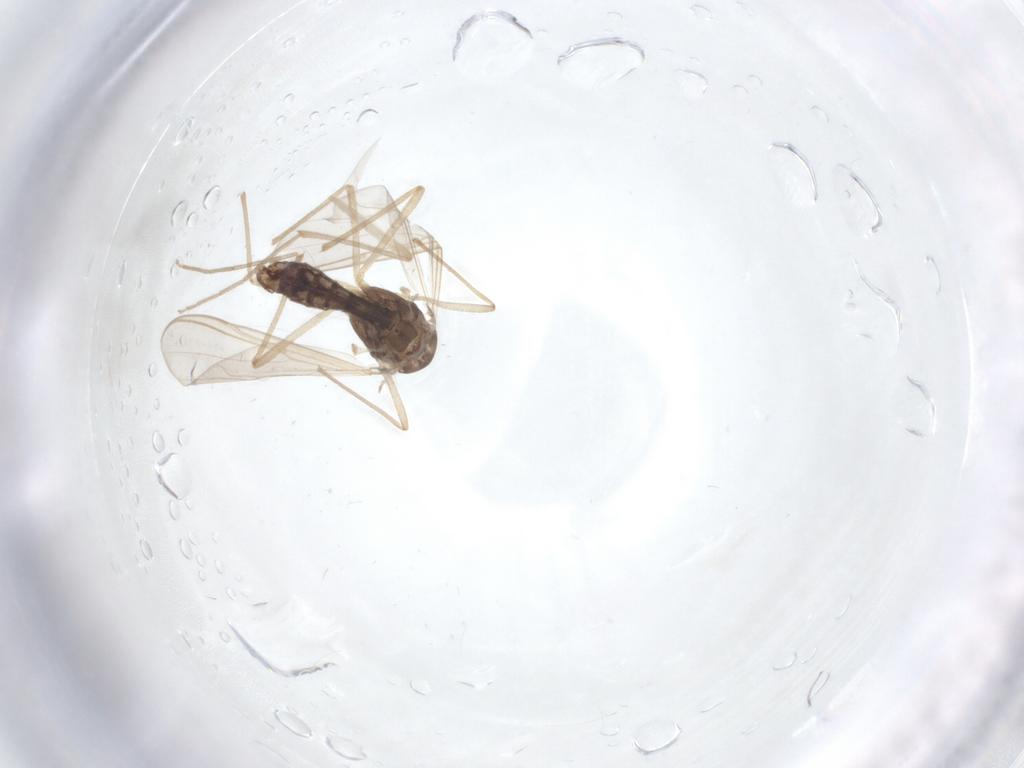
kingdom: Animalia
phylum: Arthropoda
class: Insecta
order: Diptera
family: Chironomidae
